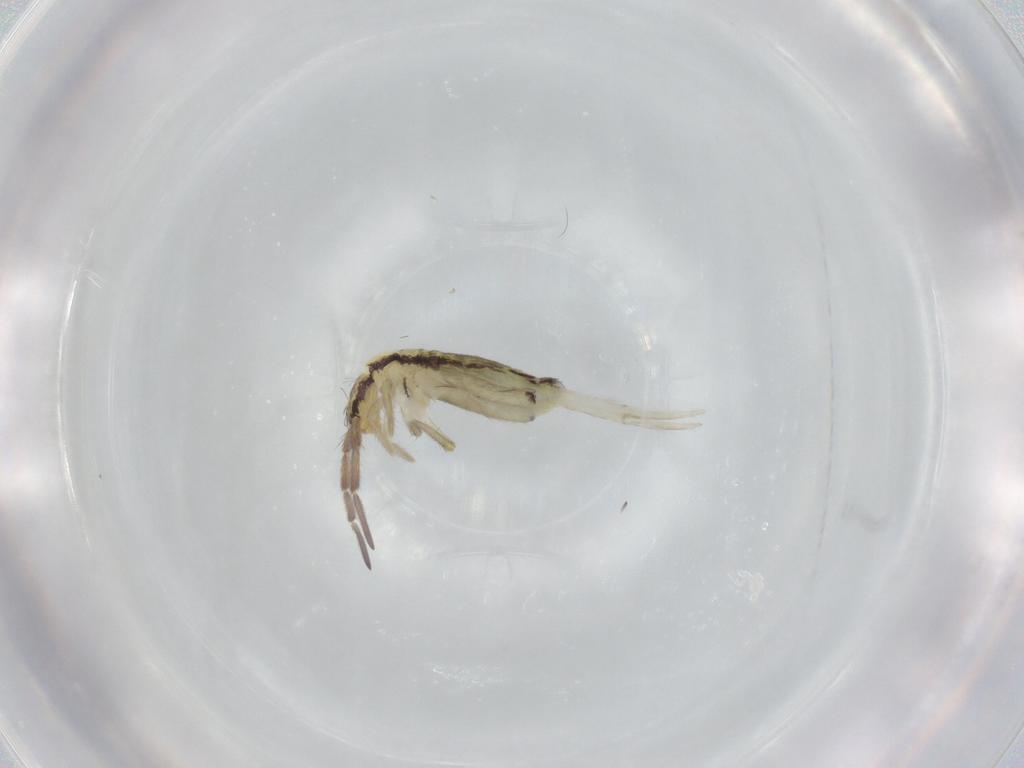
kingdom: Animalia
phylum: Arthropoda
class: Collembola
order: Entomobryomorpha
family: Entomobryidae
